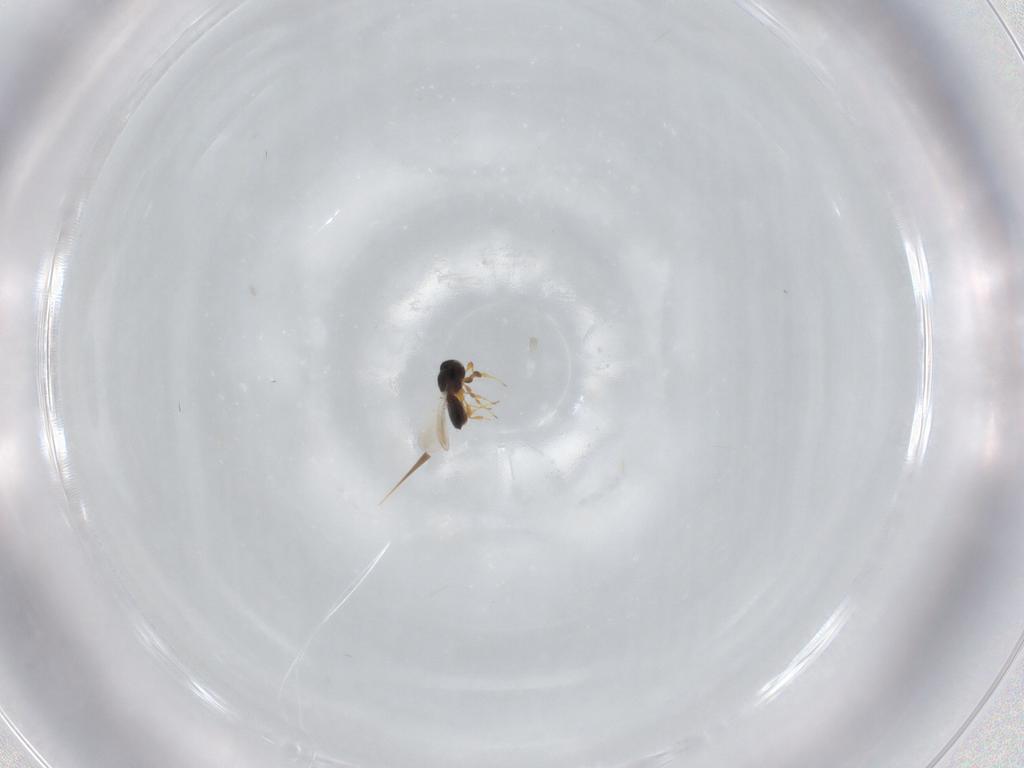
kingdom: Animalia
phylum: Arthropoda
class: Insecta
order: Hymenoptera
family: Platygastridae
